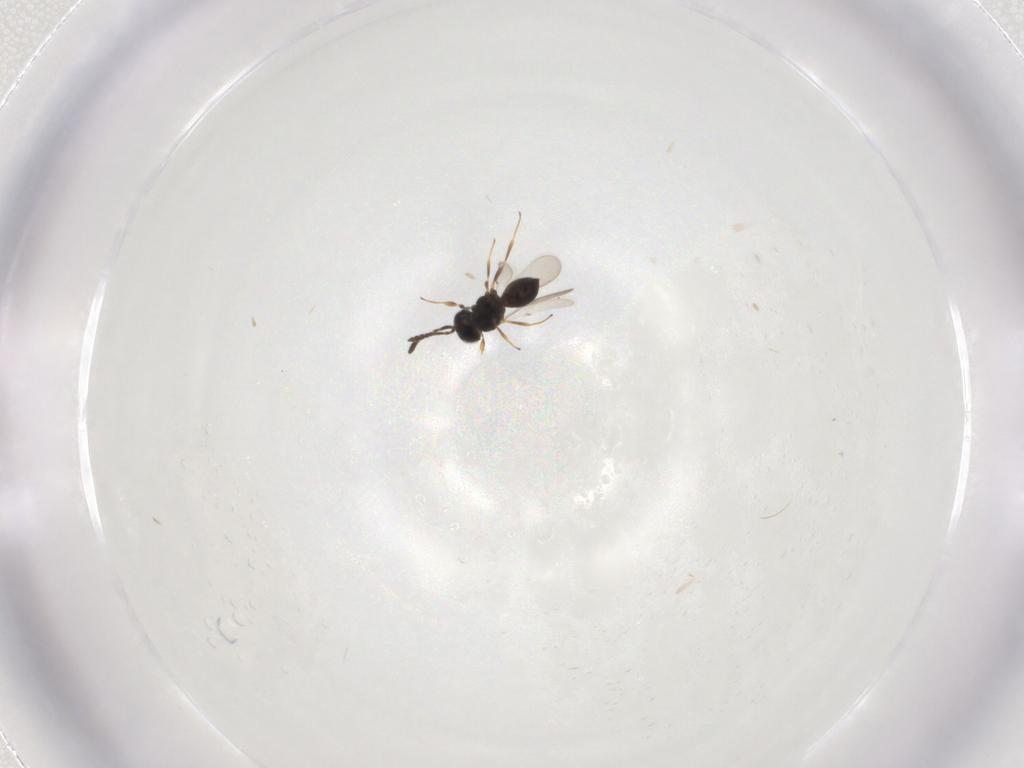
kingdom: Animalia
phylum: Arthropoda
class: Insecta
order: Hymenoptera
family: Scelionidae
